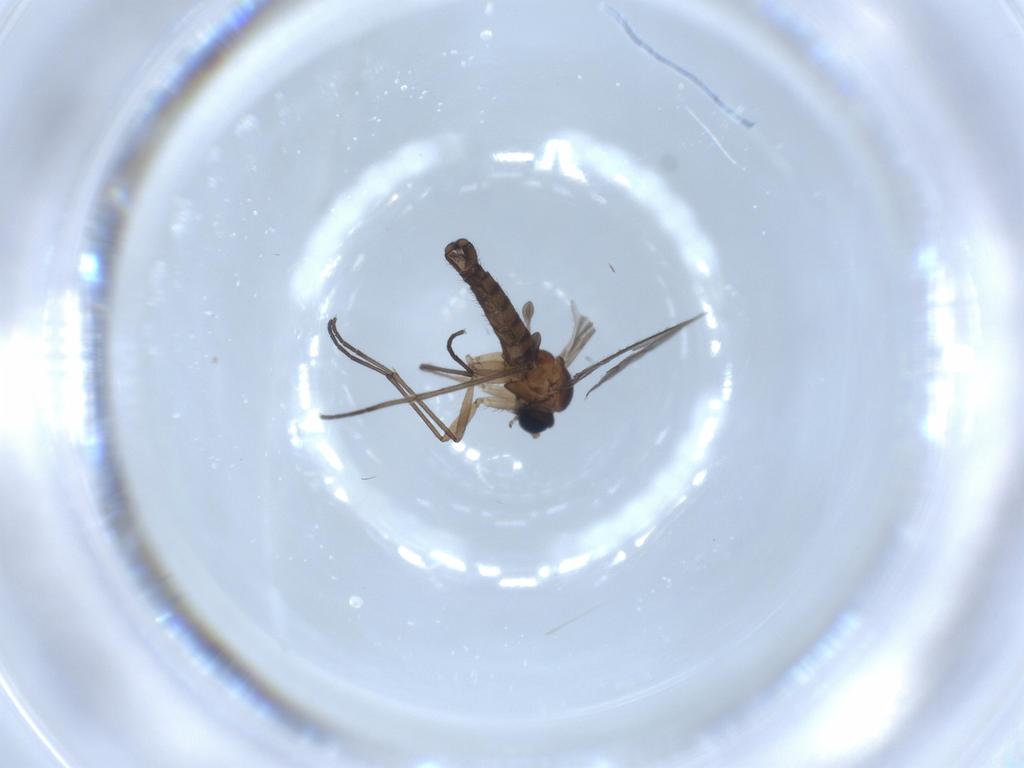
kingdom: Animalia
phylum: Arthropoda
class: Insecta
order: Diptera
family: Sciaridae
